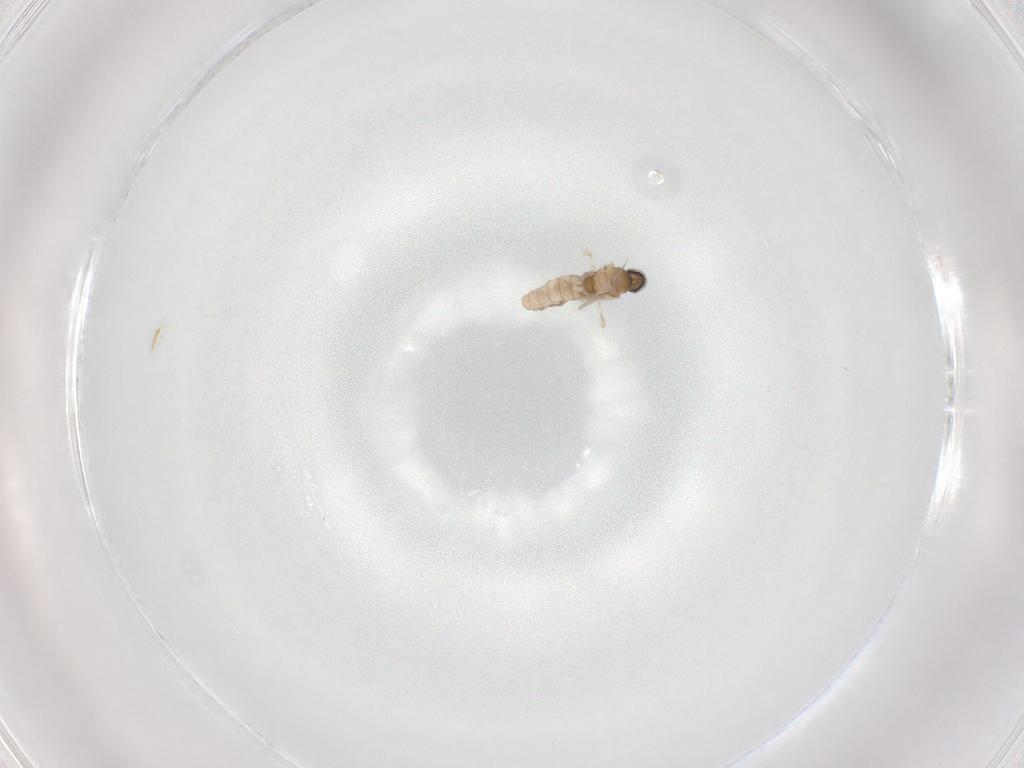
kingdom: Animalia
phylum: Arthropoda
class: Insecta
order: Diptera
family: Cecidomyiidae
